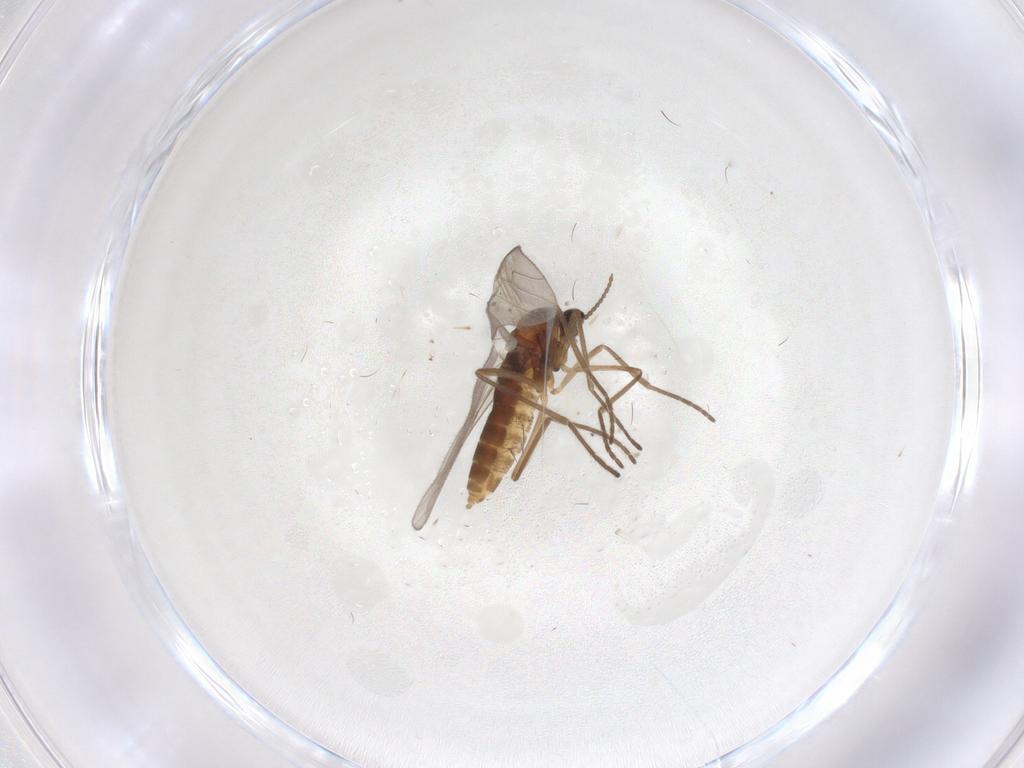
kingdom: Animalia
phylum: Arthropoda
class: Insecta
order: Diptera
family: Cecidomyiidae
